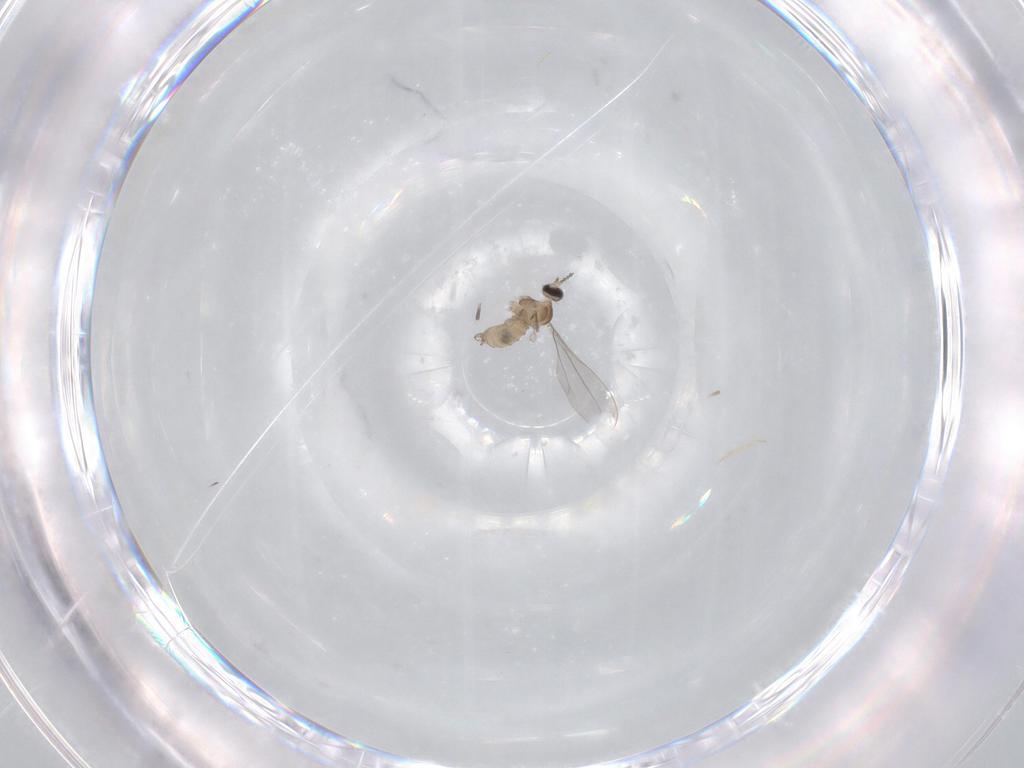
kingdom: Animalia
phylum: Arthropoda
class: Insecta
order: Diptera
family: Cecidomyiidae
